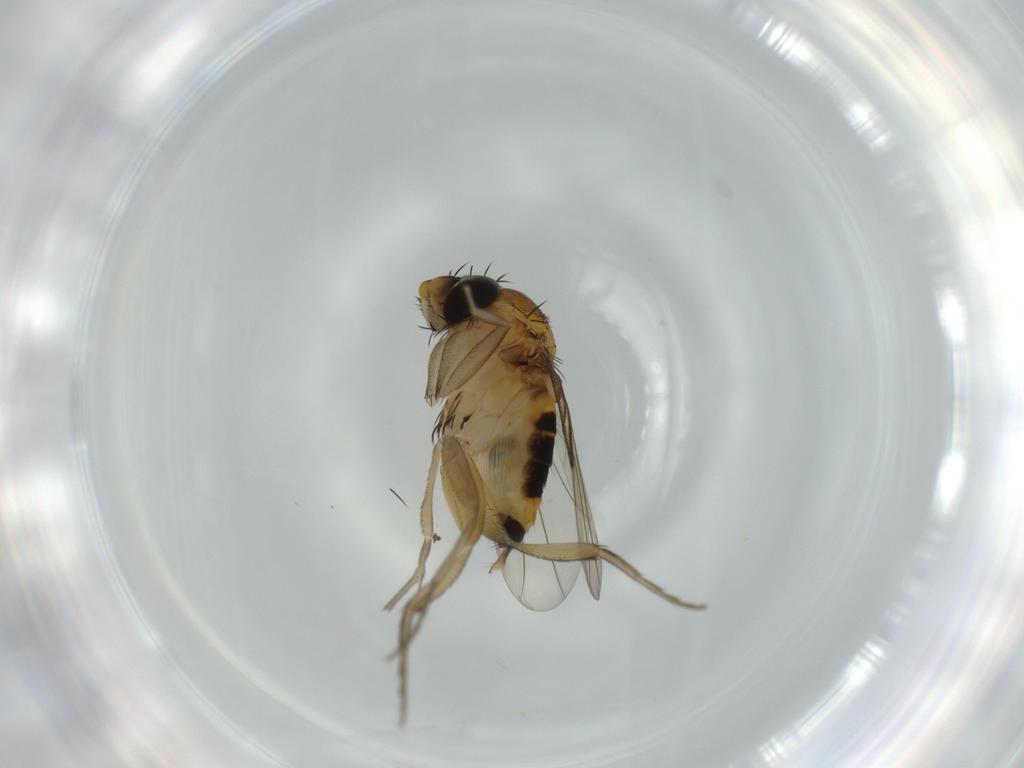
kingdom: Animalia
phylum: Arthropoda
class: Insecta
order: Diptera
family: Phoridae
